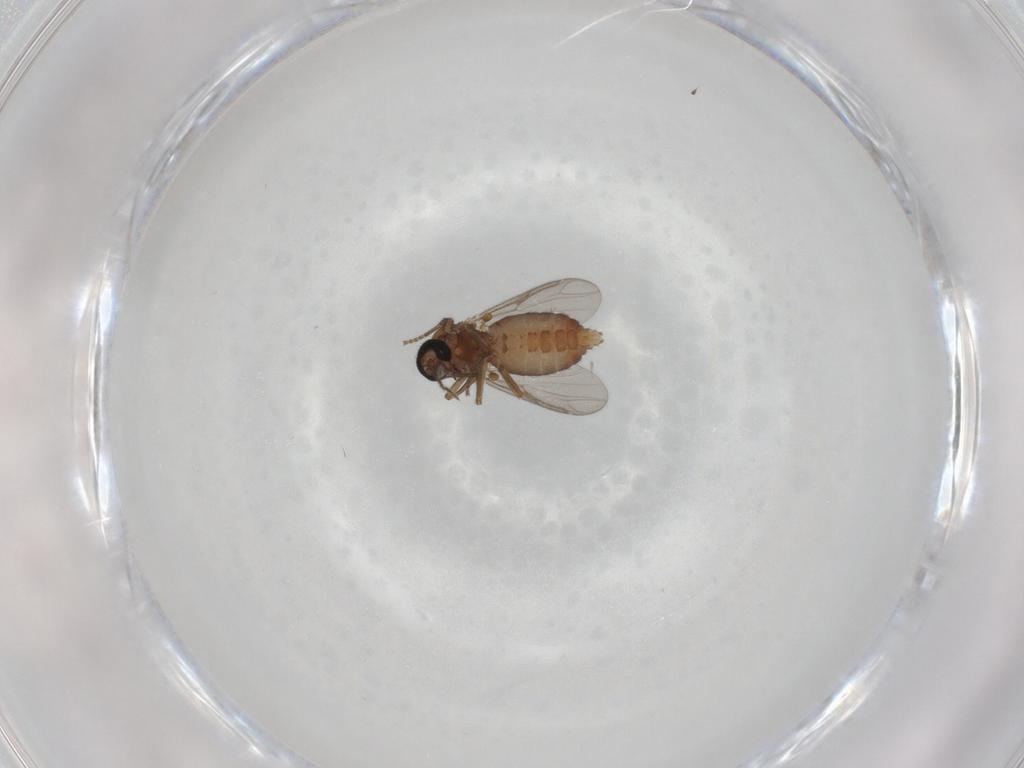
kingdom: Animalia
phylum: Arthropoda
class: Insecta
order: Diptera
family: Ceratopogonidae
